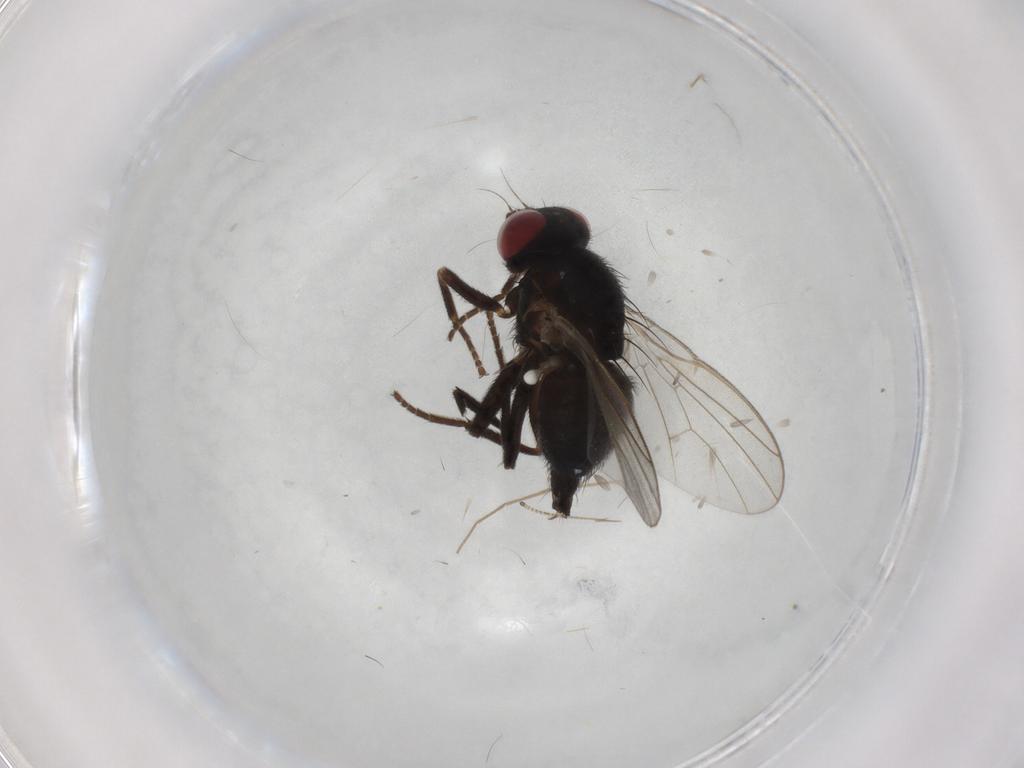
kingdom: Animalia
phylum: Arthropoda
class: Insecta
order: Diptera
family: Agromyzidae
